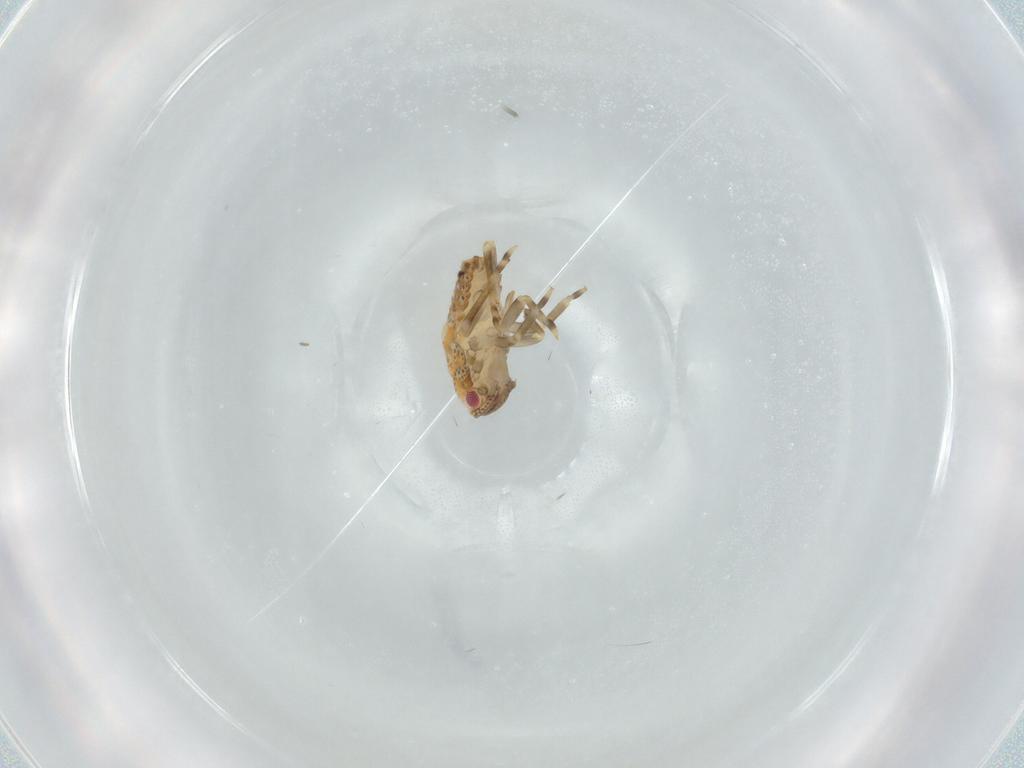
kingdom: Animalia
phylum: Arthropoda
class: Insecta
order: Hemiptera
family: Flatidae
